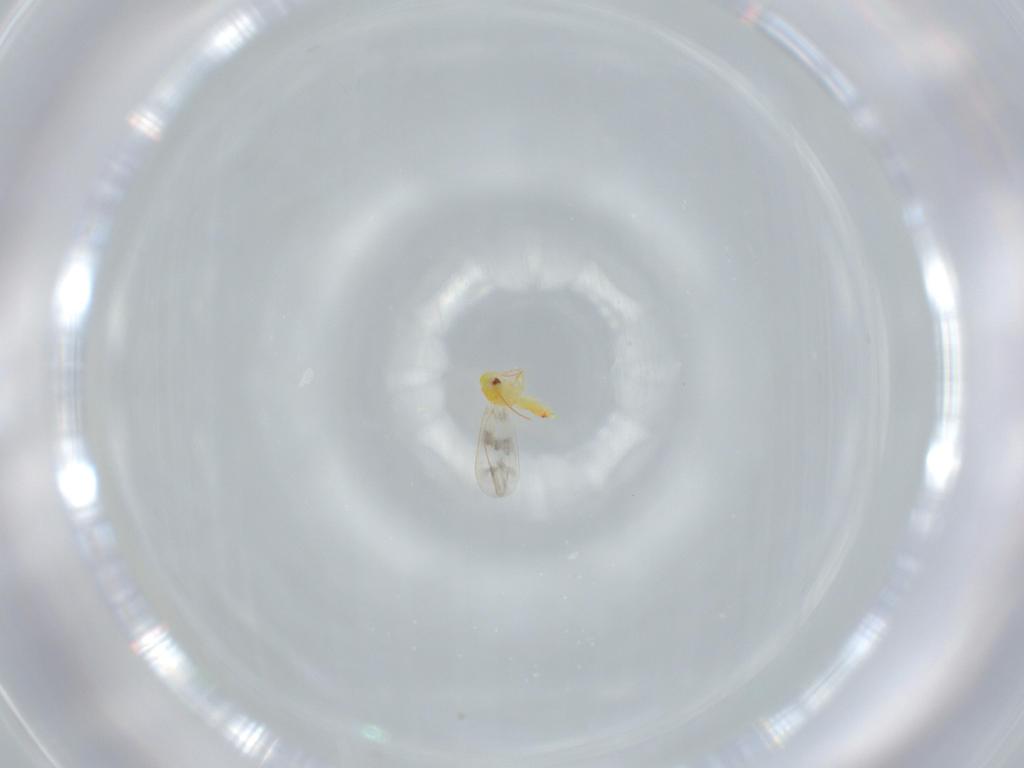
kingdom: Animalia
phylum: Arthropoda
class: Insecta
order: Hemiptera
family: Aleyrodidae
